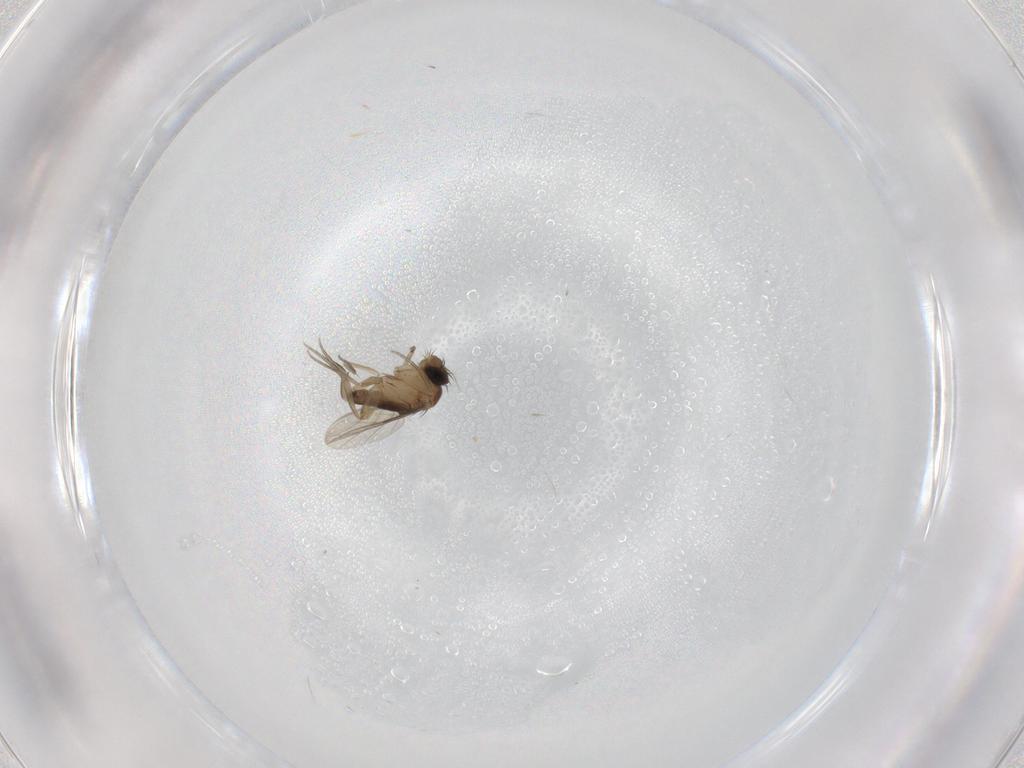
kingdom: Animalia
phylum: Arthropoda
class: Insecta
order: Diptera
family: Phoridae
